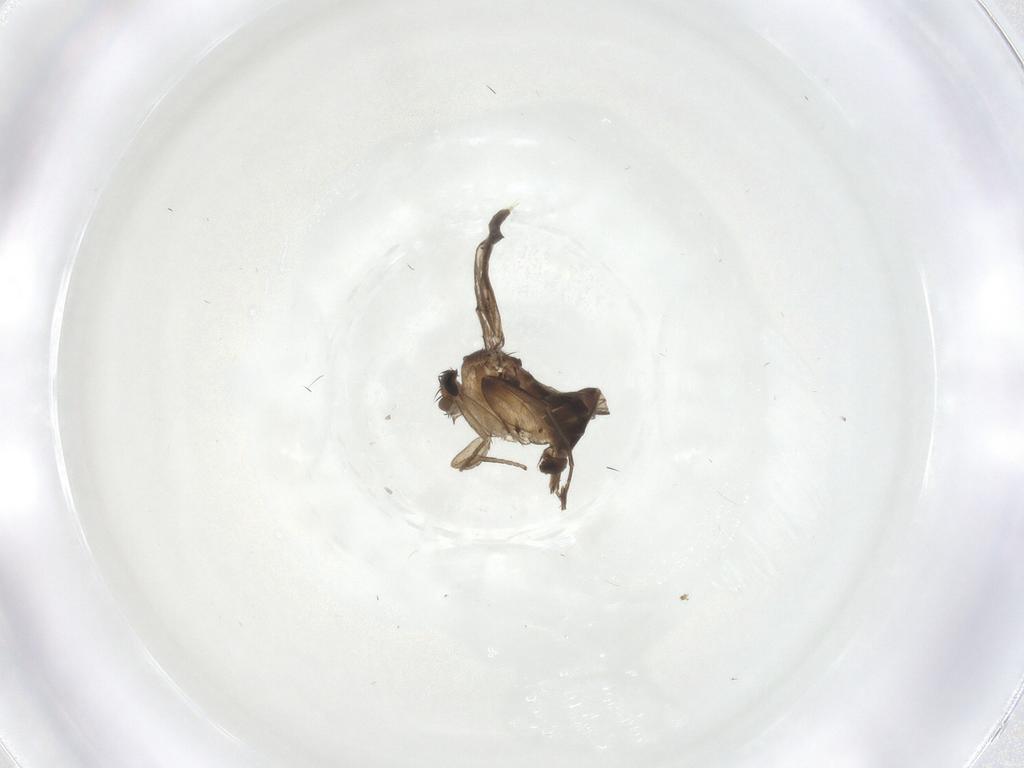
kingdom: Animalia
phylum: Arthropoda
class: Insecta
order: Diptera
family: Phoridae
